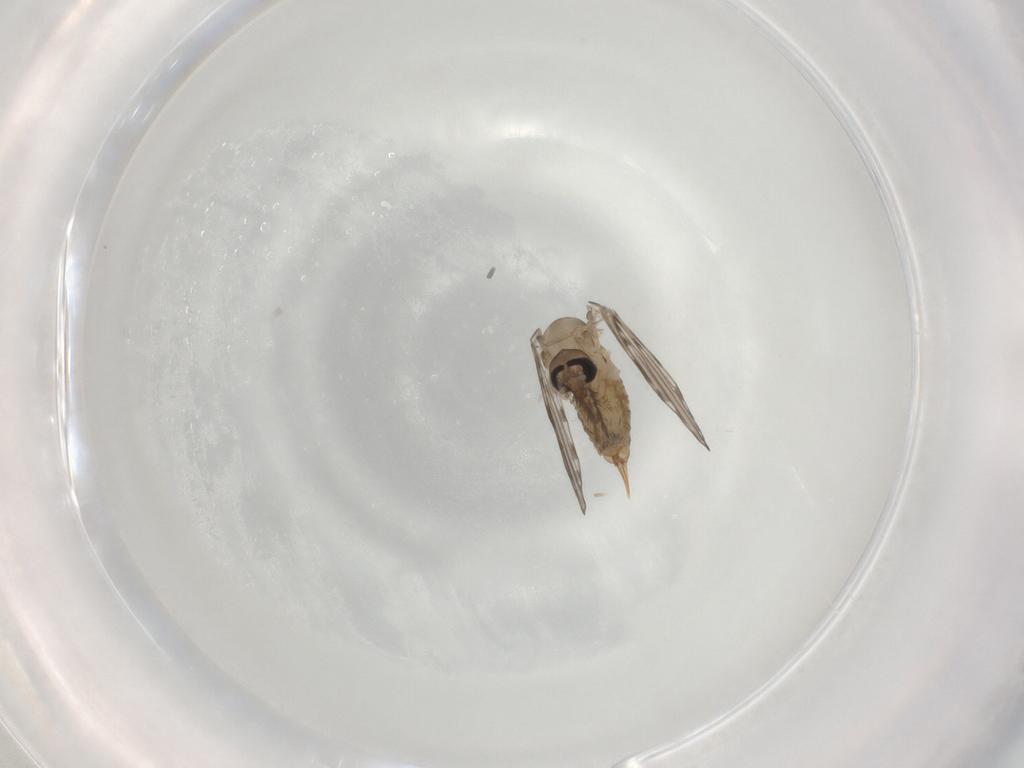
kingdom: Animalia
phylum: Arthropoda
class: Insecta
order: Diptera
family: Psychodidae
